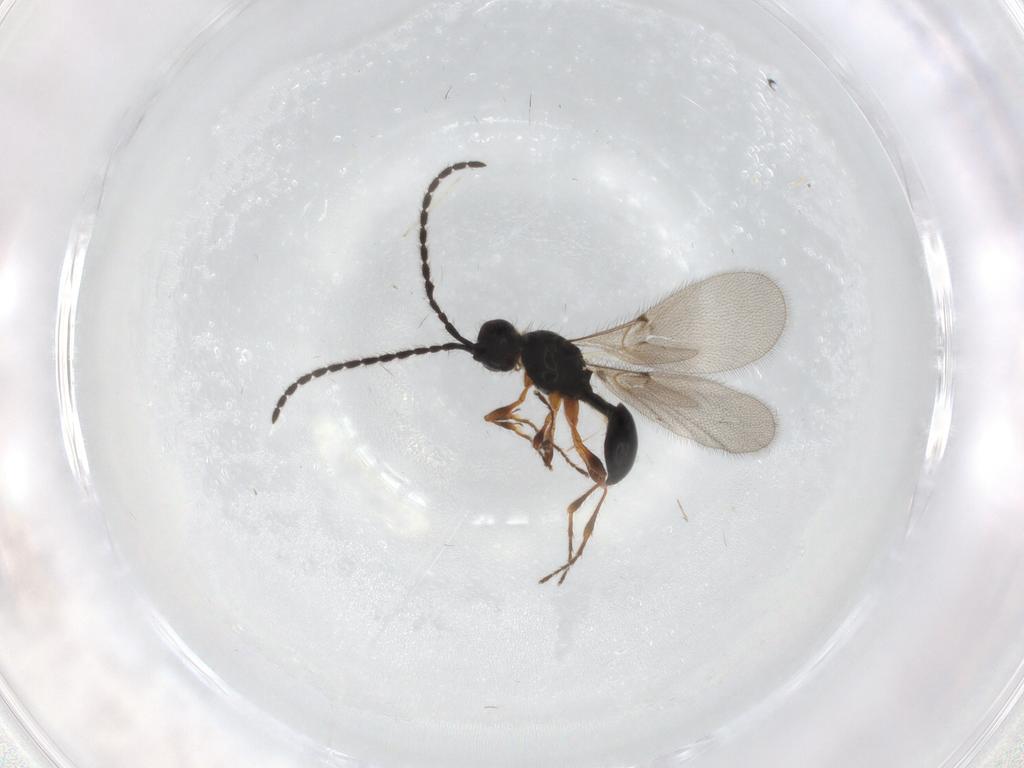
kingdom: Animalia
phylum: Arthropoda
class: Insecta
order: Hymenoptera
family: Diapriidae
